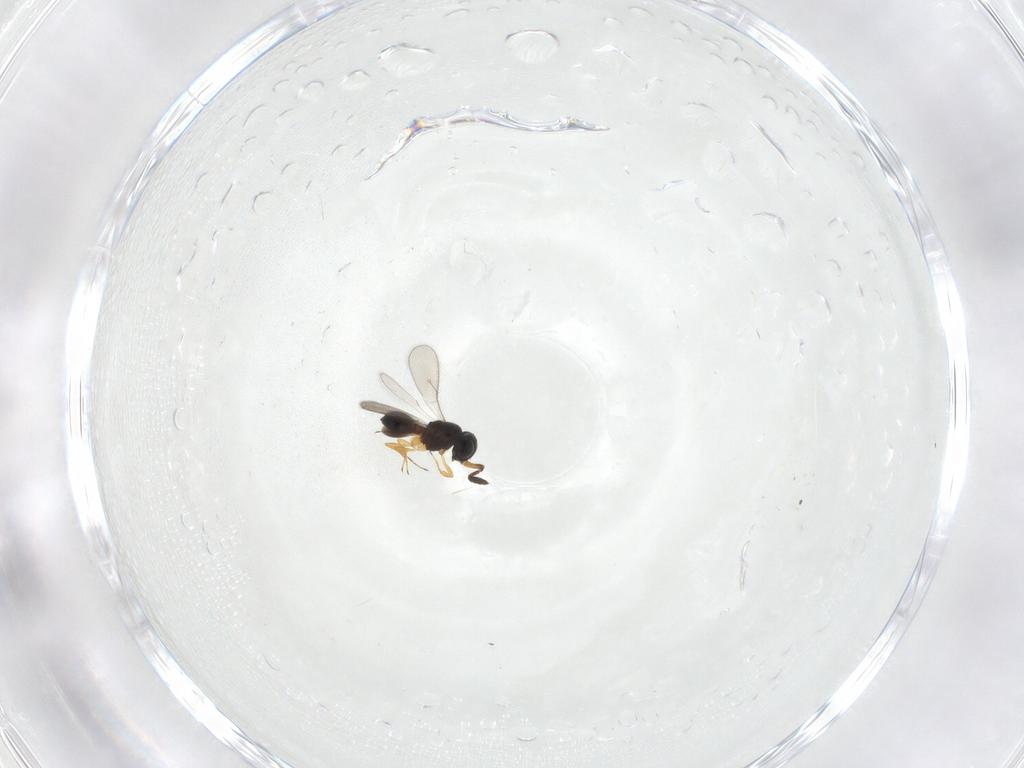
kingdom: Animalia
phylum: Arthropoda
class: Insecta
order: Hymenoptera
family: Scelionidae
